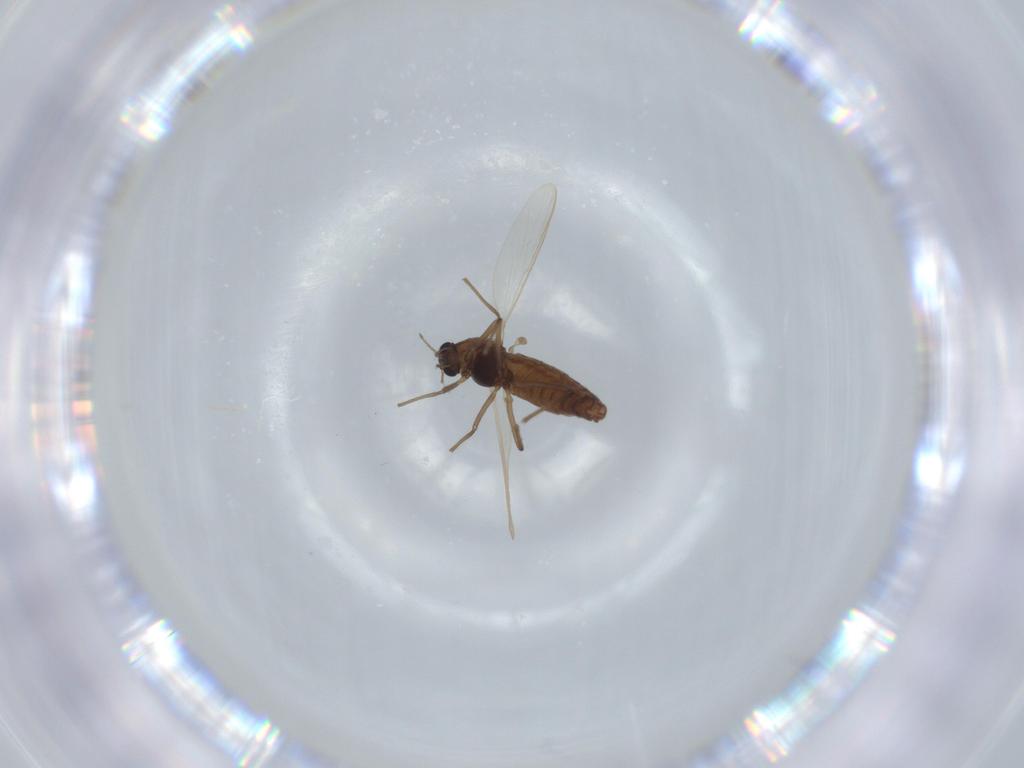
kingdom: Animalia
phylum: Arthropoda
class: Insecta
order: Diptera
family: Chironomidae
